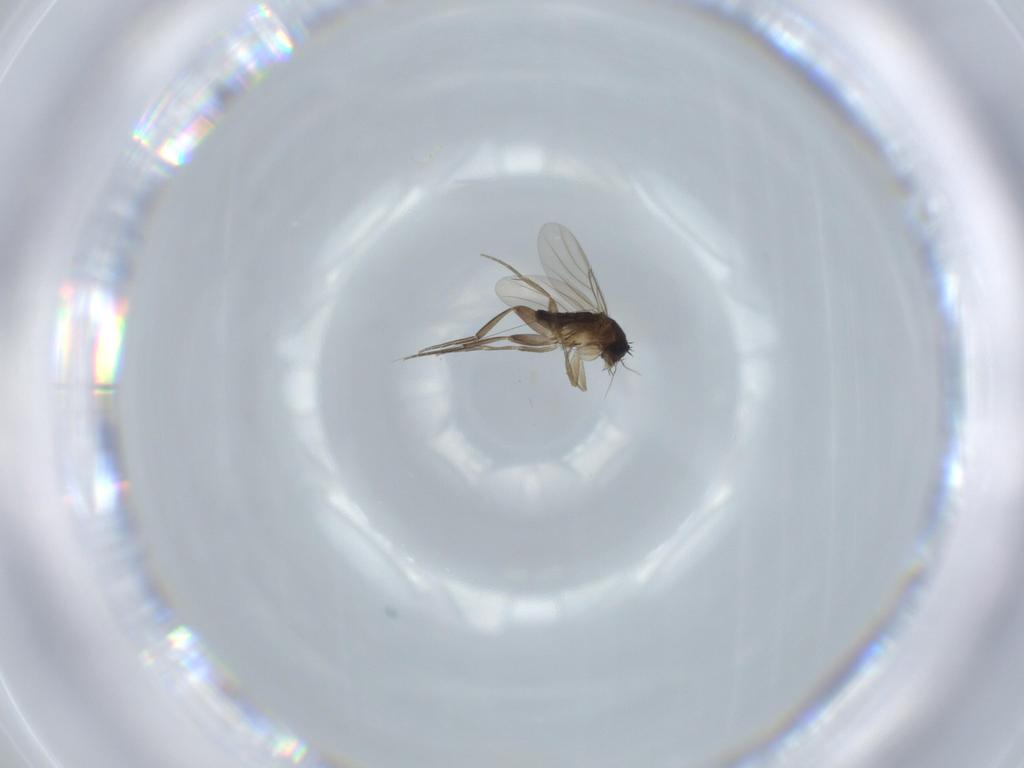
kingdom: Animalia
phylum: Arthropoda
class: Insecta
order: Diptera
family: Phoridae
